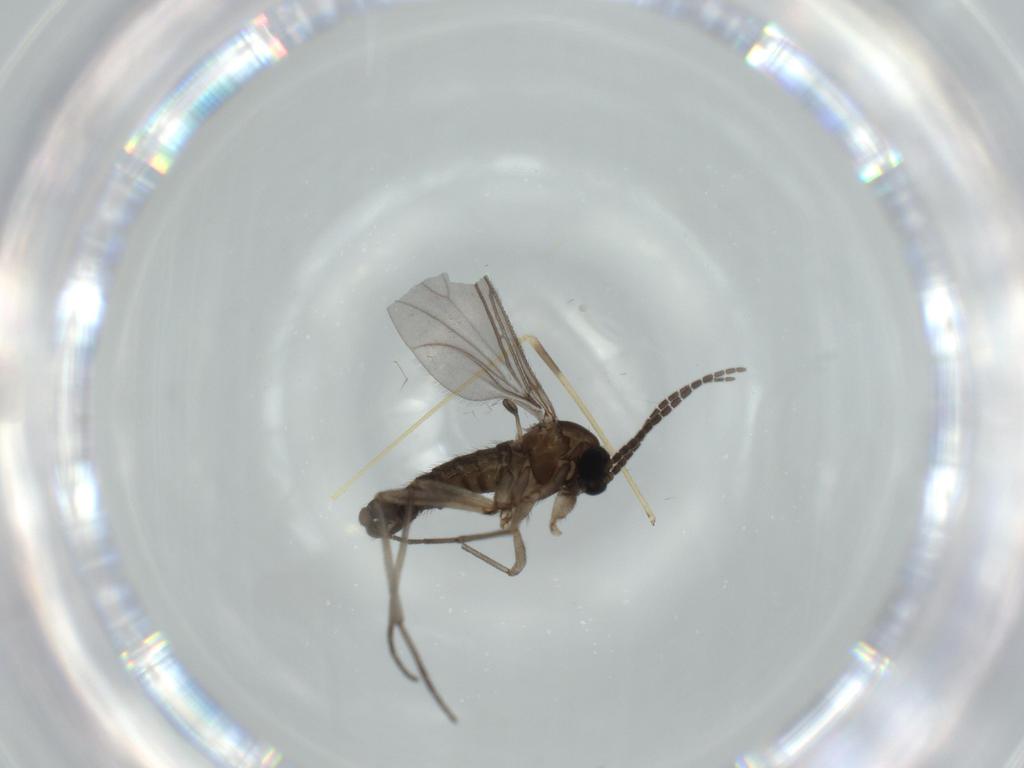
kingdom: Animalia
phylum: Arthropoda
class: Insecta
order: Diptera
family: Sciaridae
